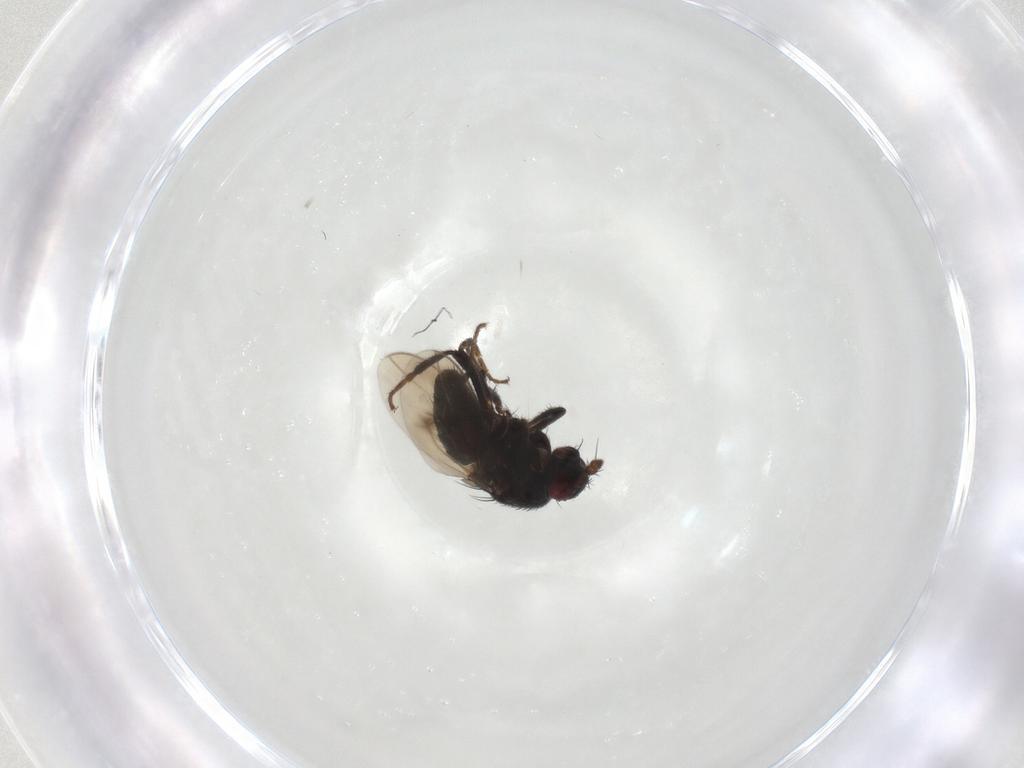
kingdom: Animalia
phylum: Arthropoda
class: Insecta
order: Diptera
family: Sphaeroceridae
